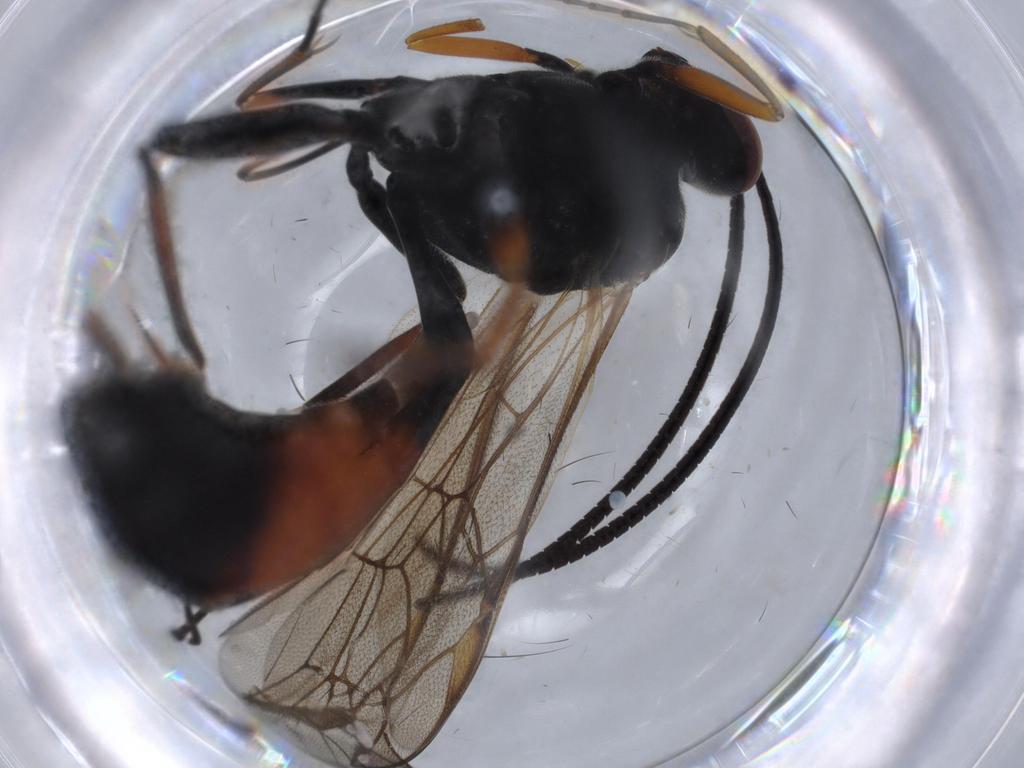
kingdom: Animalia
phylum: Arthropoda
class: Insecta
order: Hymenoptera
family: Ichneumonidae
